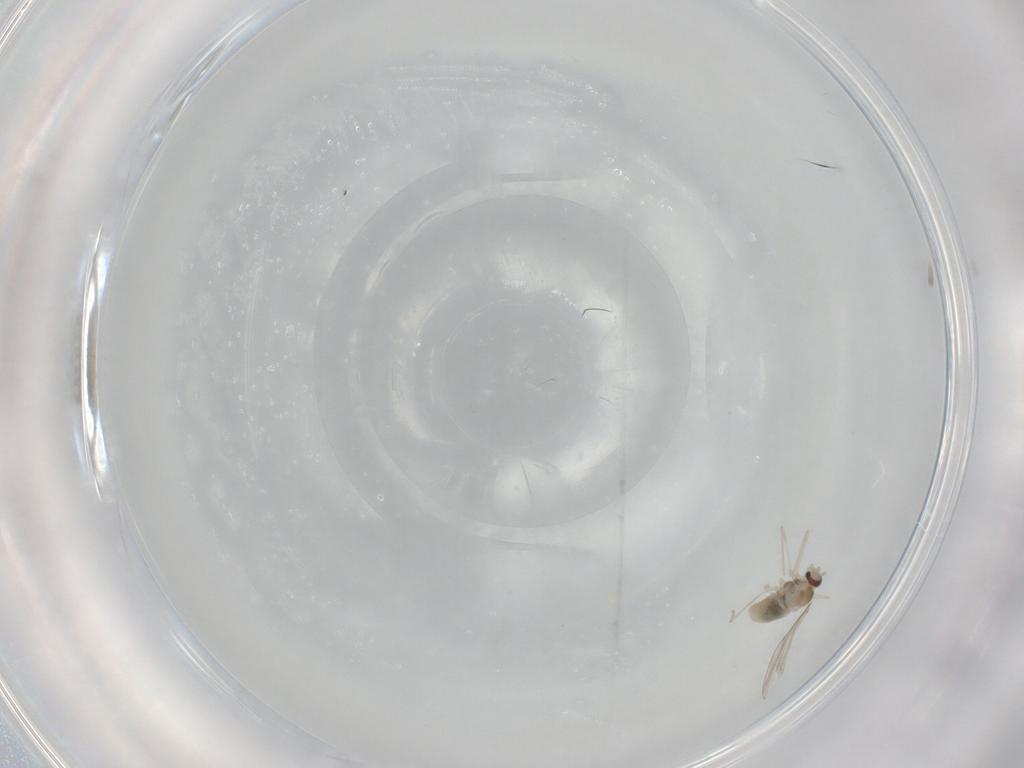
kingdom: Animalia
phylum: Arthropoda
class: Insecta
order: Diptera
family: Cecidomyiidae
